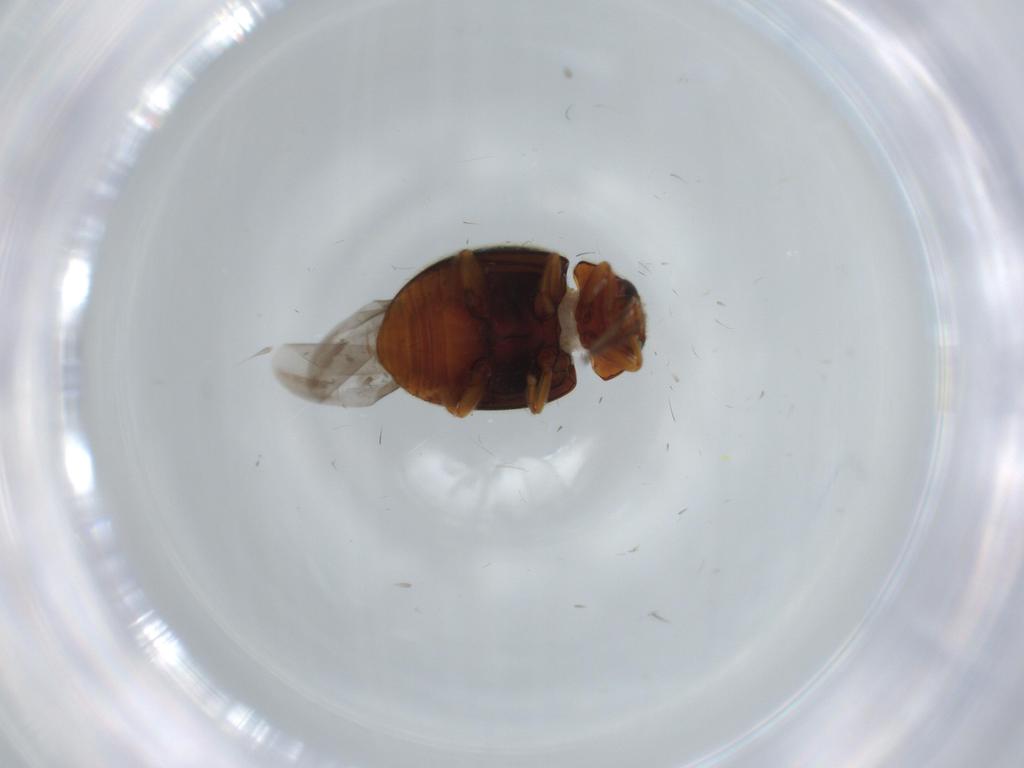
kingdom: Animalia
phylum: Arthropoda
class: Insecta
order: Coleoptera
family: Coccinellidae
